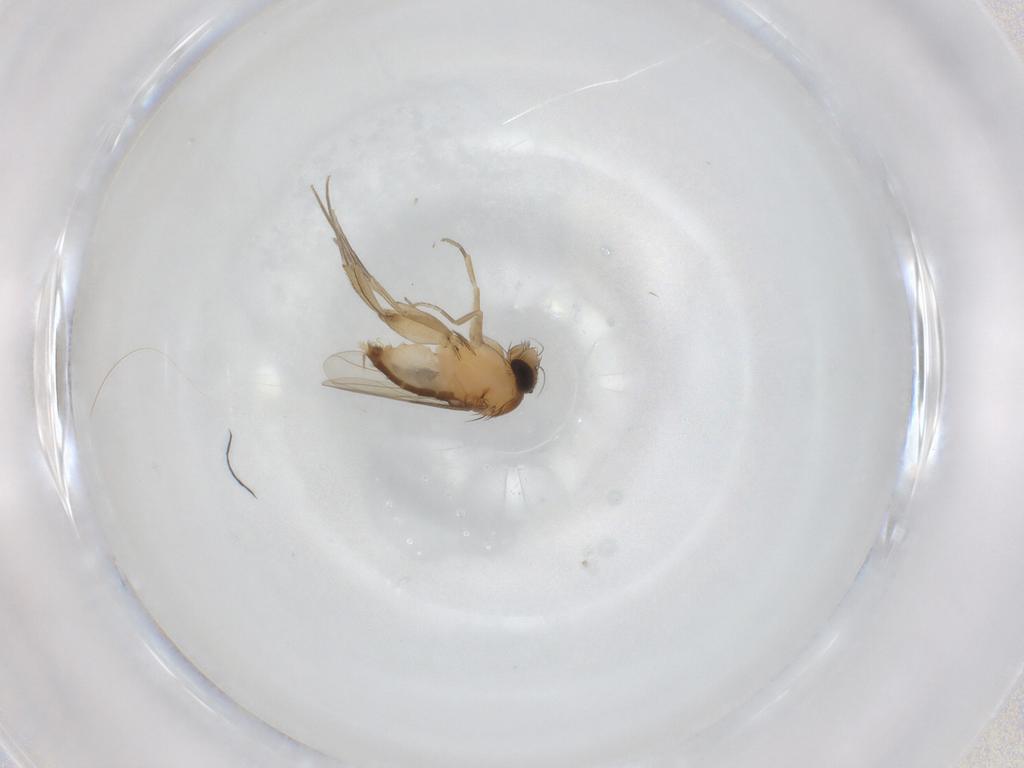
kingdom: Animalia
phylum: Arthropoda
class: Insecta
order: Diptera
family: Phoridae
